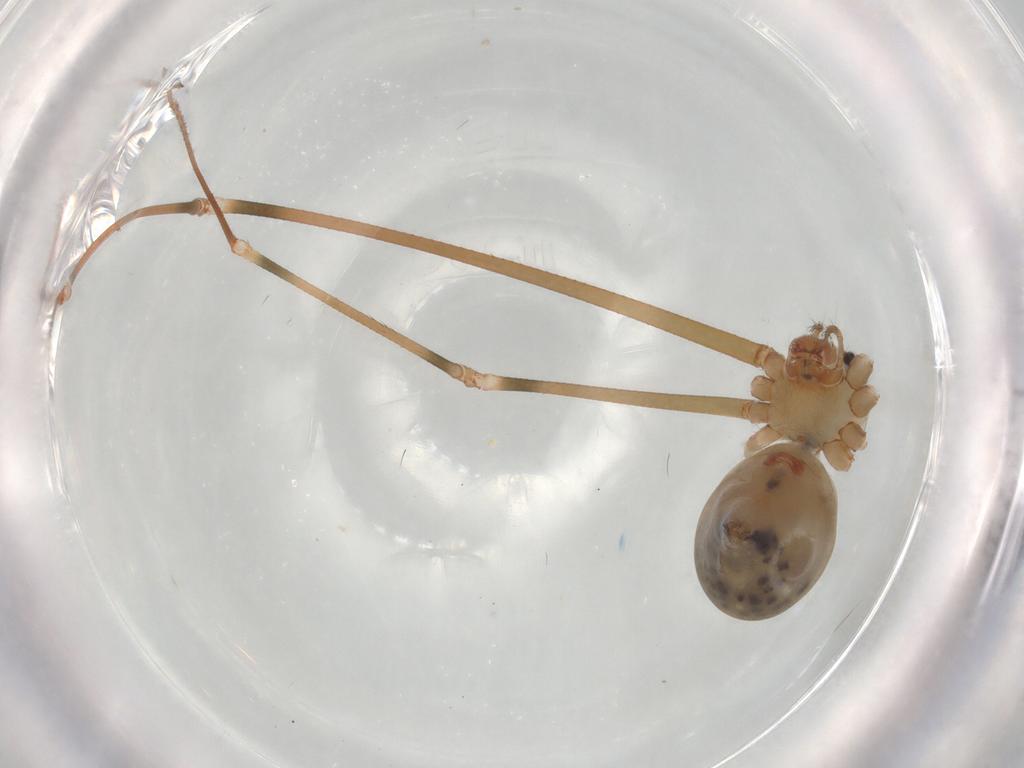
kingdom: Animalia
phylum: Arthropoda
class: Arachnida
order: Araneae
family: Pholcidae
